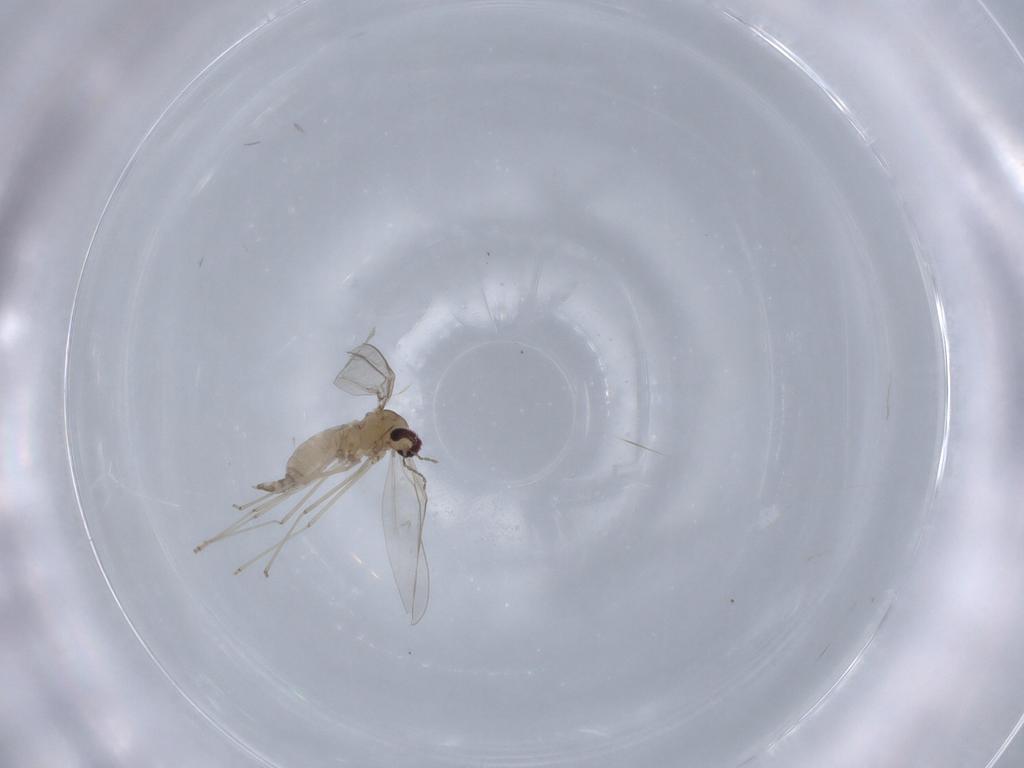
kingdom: Animalia
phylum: Arthropoda
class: Insecta
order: Diptera
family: Cecidomyiidae
